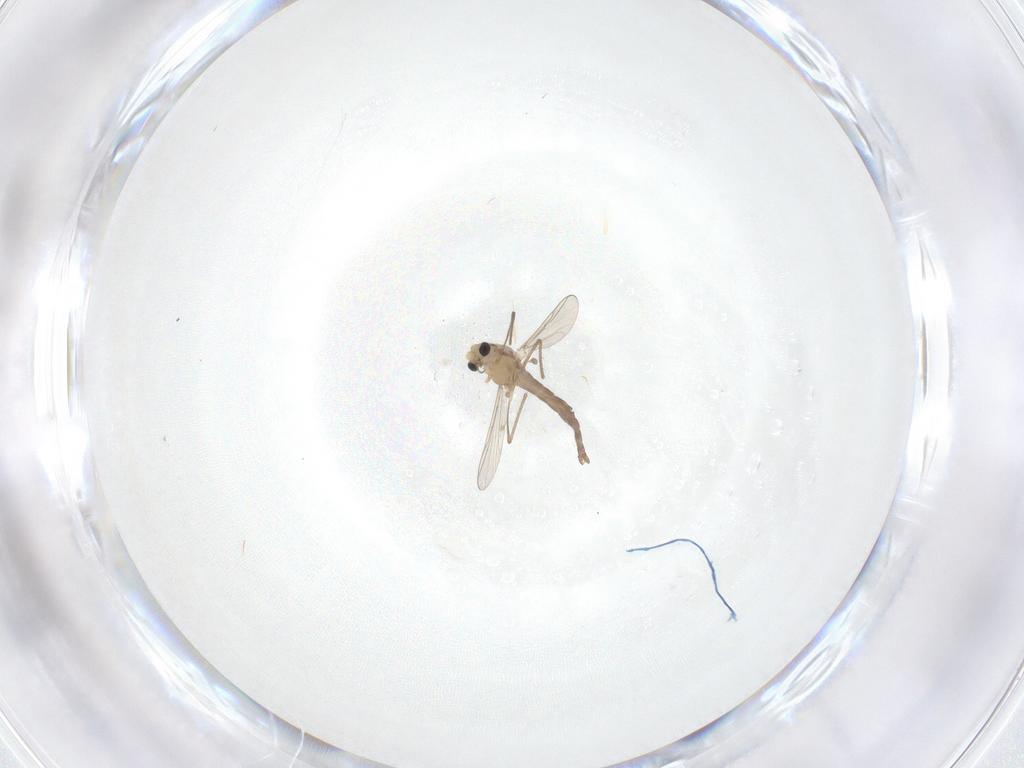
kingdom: Animalia
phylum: Arthropoda
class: Insecta
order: Diptera
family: Chironomidae
